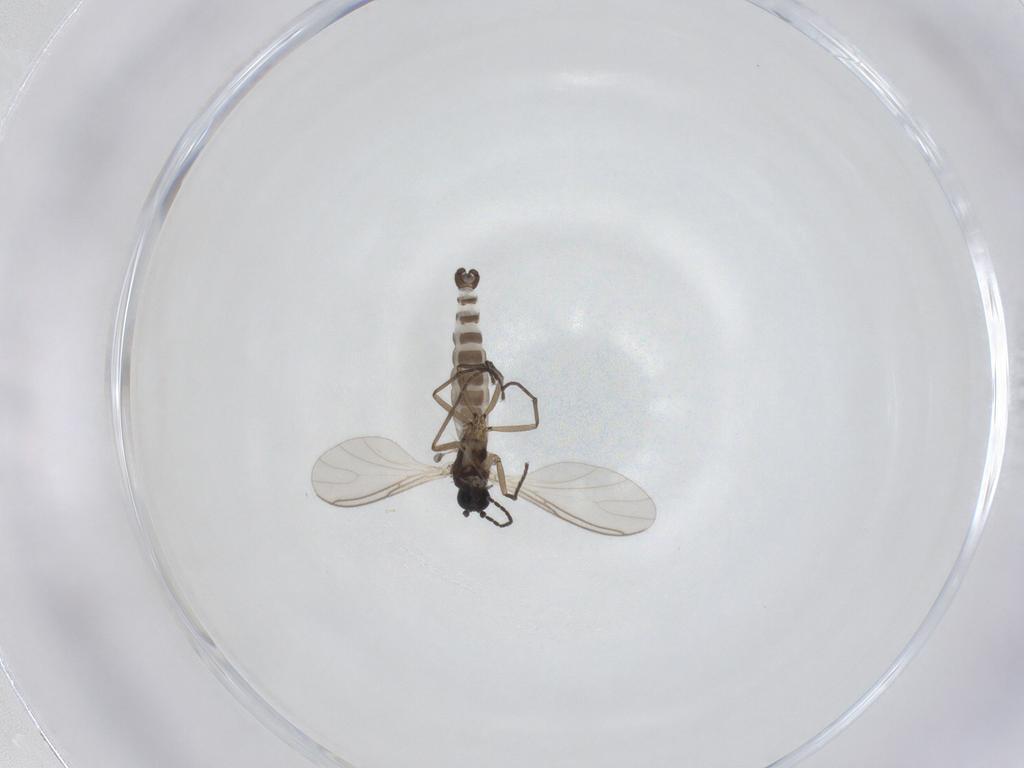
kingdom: Animalia
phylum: Arthropoda
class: Insecta
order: Diptera
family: Sciaridae
